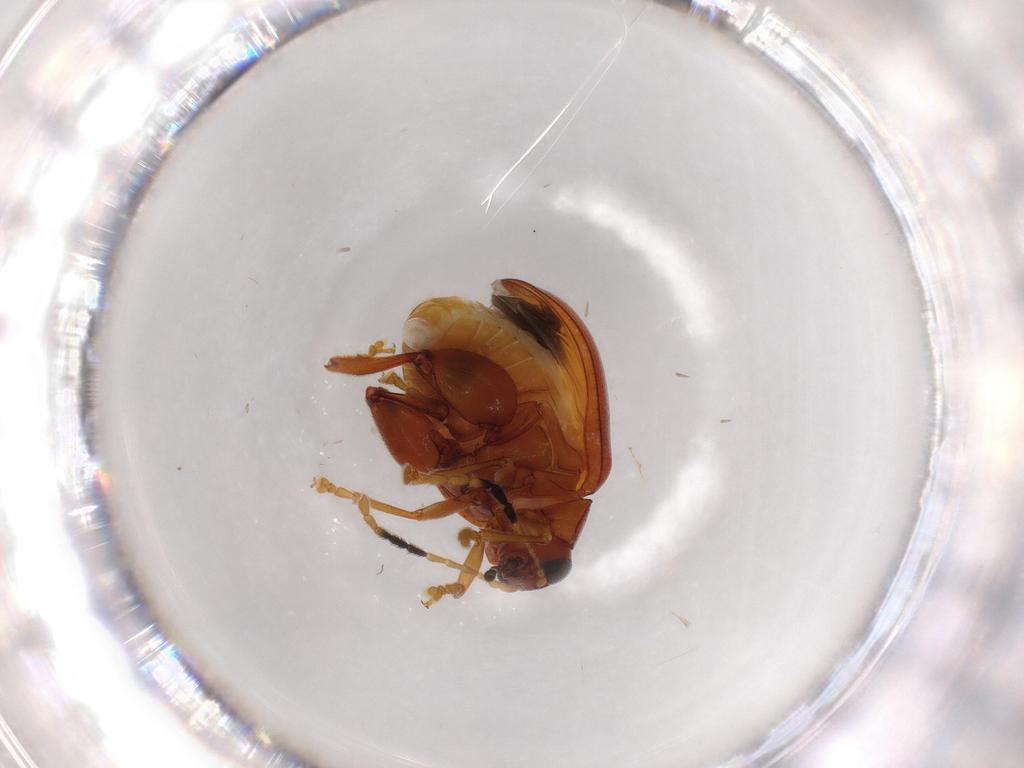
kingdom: Animalia
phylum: Arthropoda
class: Insecta
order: Coleoptera
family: Chrysomelidae
